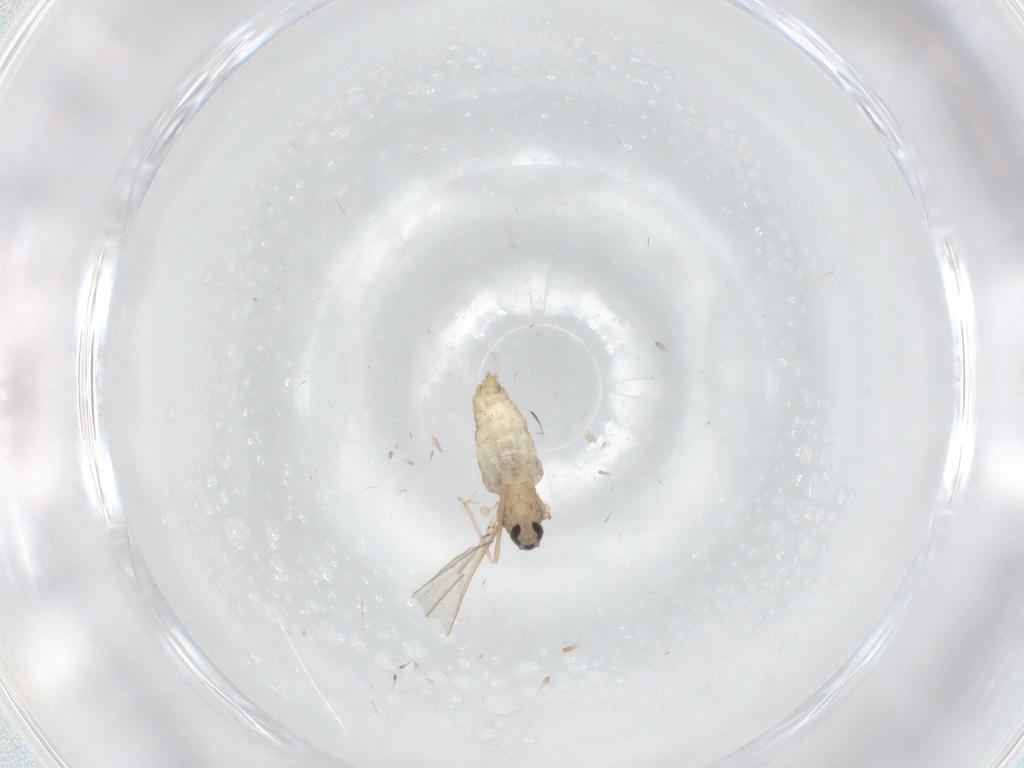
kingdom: Animalia
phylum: Arthropoda
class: Insecta
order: Diptera
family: Cecidomyiidae
